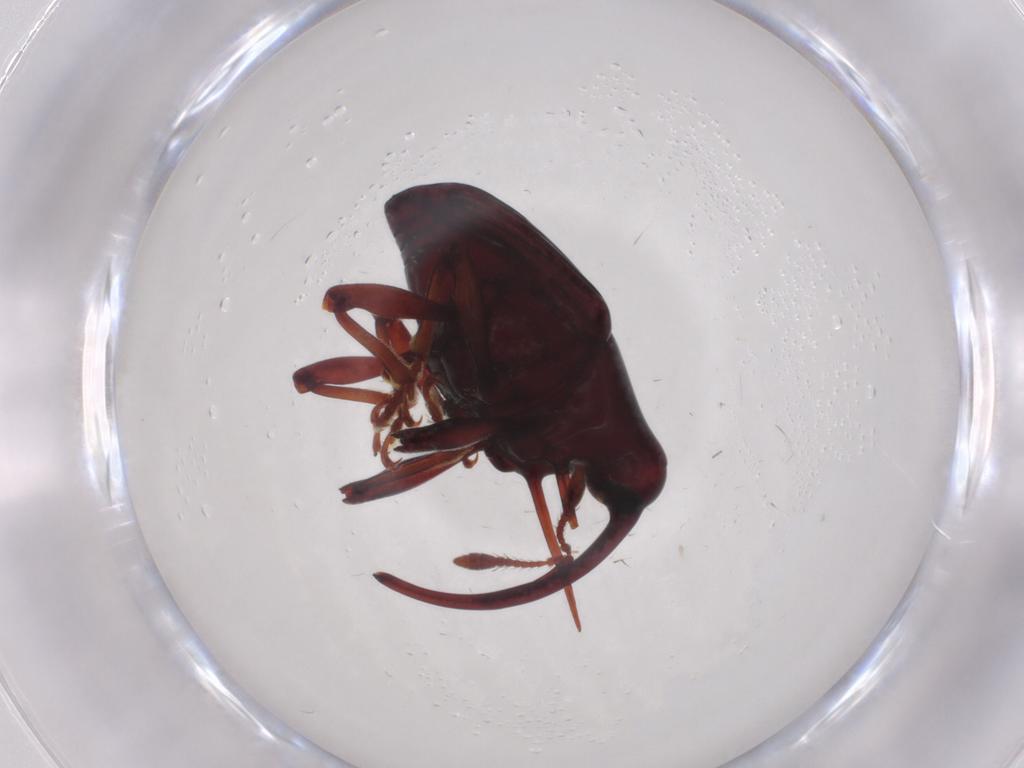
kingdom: Animalia
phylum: Arthropoda
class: Insecta
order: Coleoptera
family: Curculionidae
